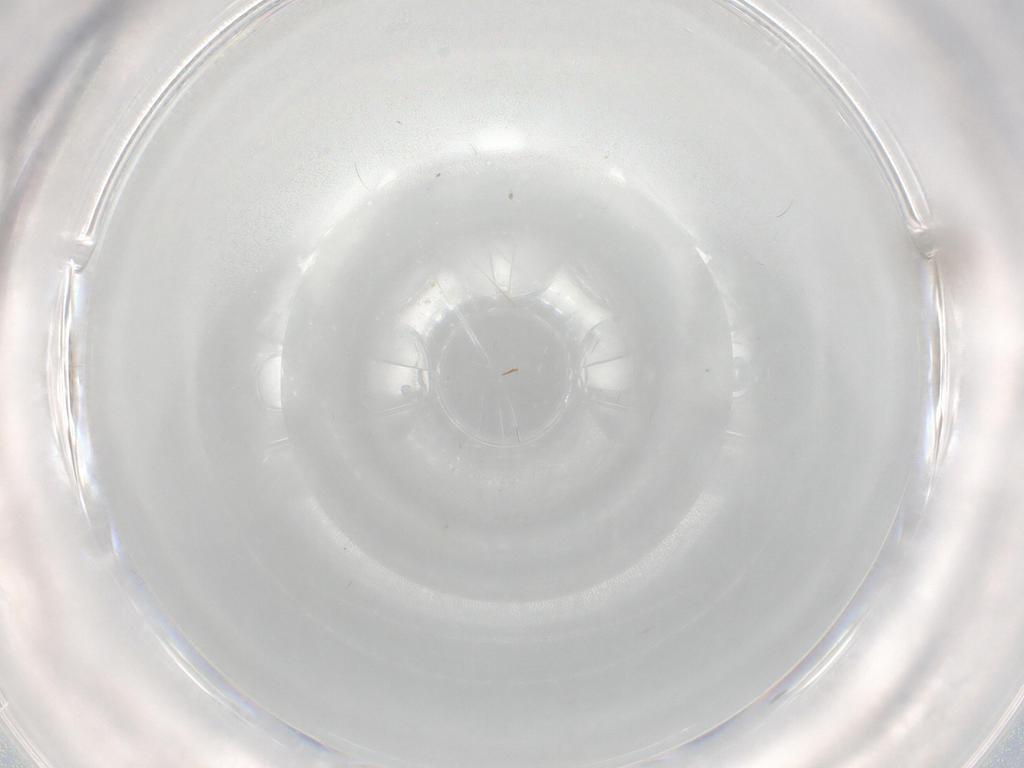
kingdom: Animalia
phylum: Arthropoda
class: Insecta
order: Diptera
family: Cecidomyiidae
